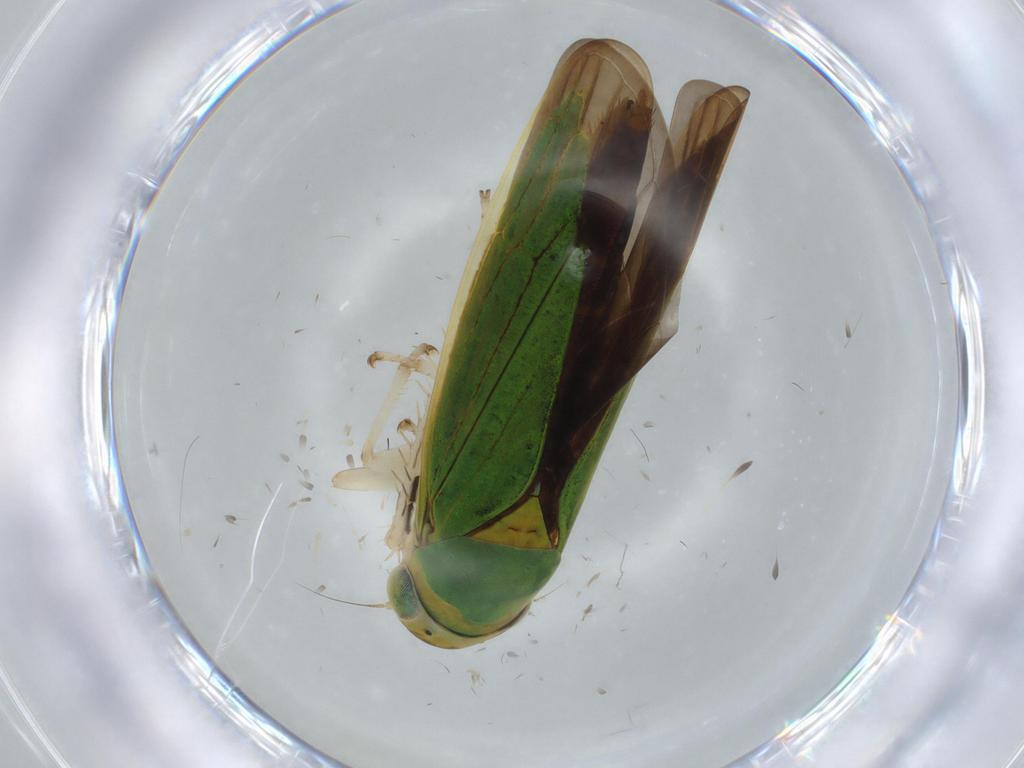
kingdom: Animalia
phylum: Arthropoda
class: Insecta
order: Hemiptera
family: Cicadellidae
